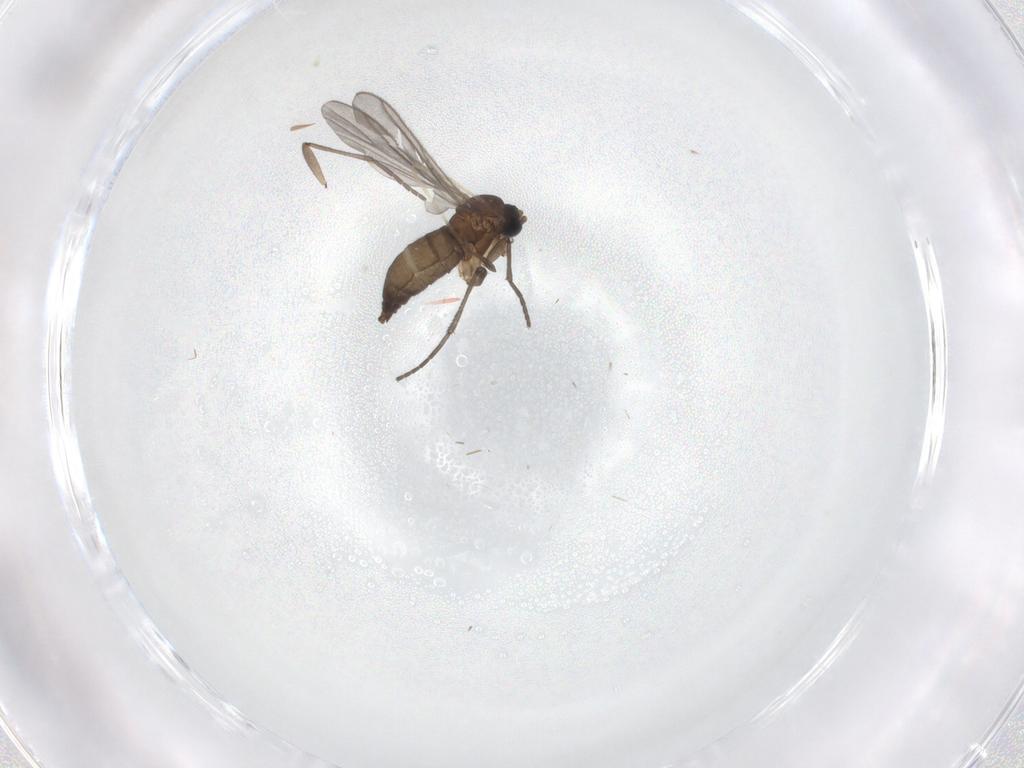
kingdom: Animalia
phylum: Arthropoda
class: Insecta
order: Diptera
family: Sciaridae
